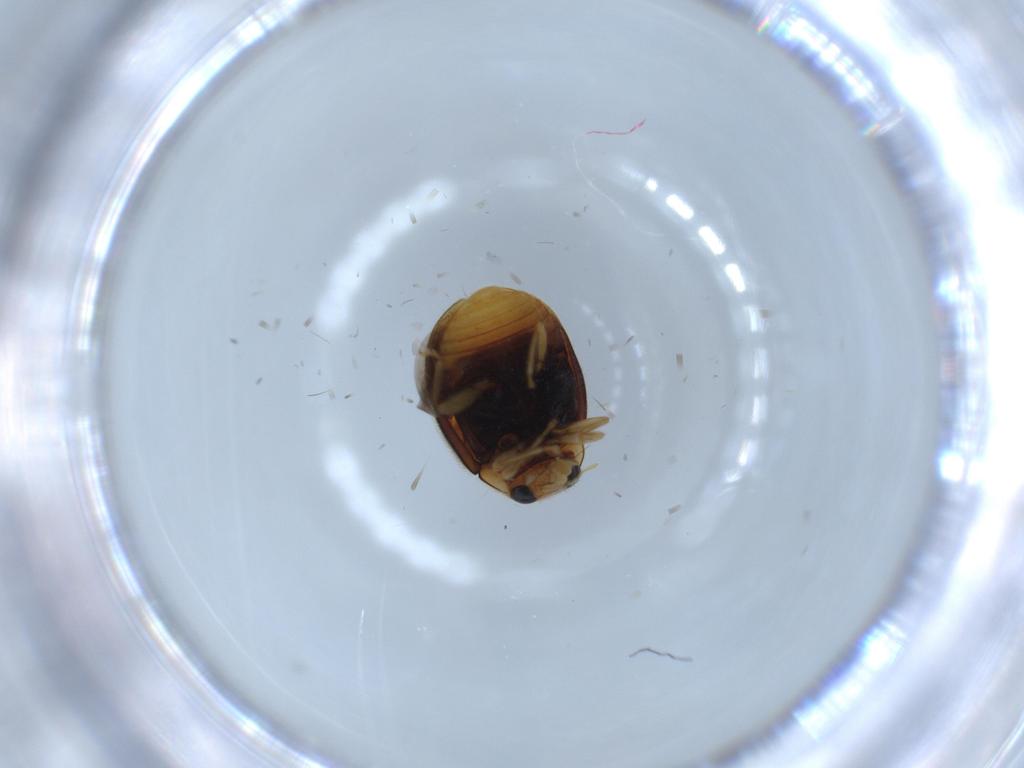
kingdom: Animalia
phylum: Arthropoda
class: Insecta
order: Coleoptera
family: Chrysomelidae
